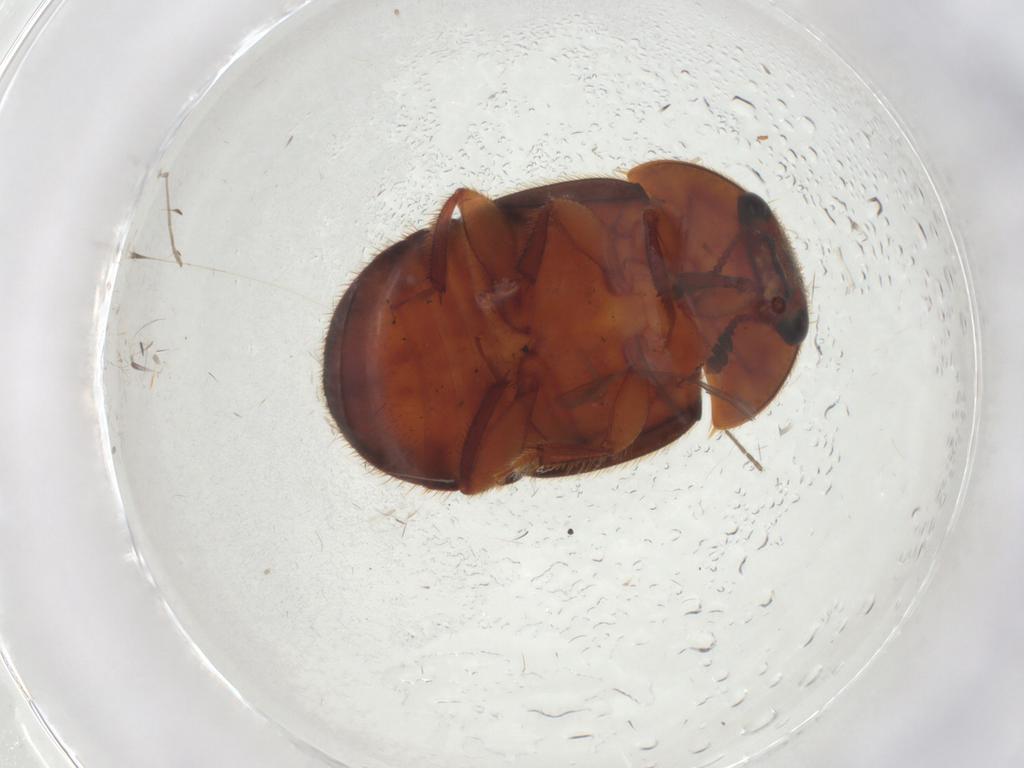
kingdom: Animalia
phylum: Arthropoda
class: Insecta
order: Coleoptera
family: Nitidulidae
